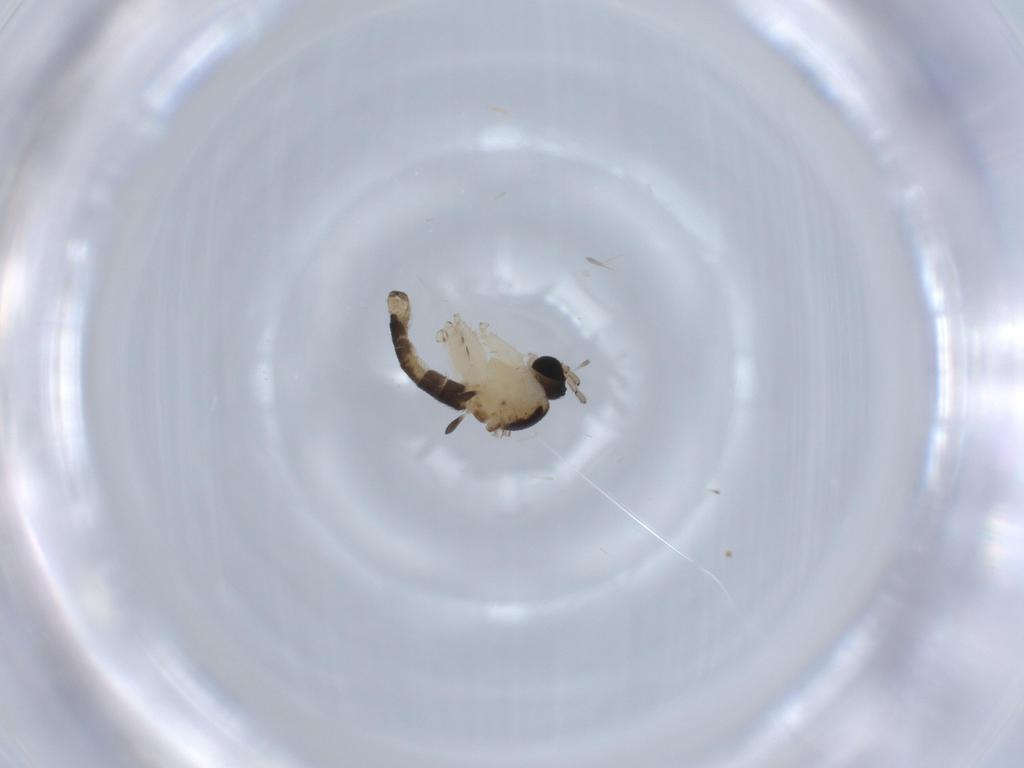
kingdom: Animalia
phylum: Arthropoda
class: Insecta
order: Diptera
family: Sciaridae
